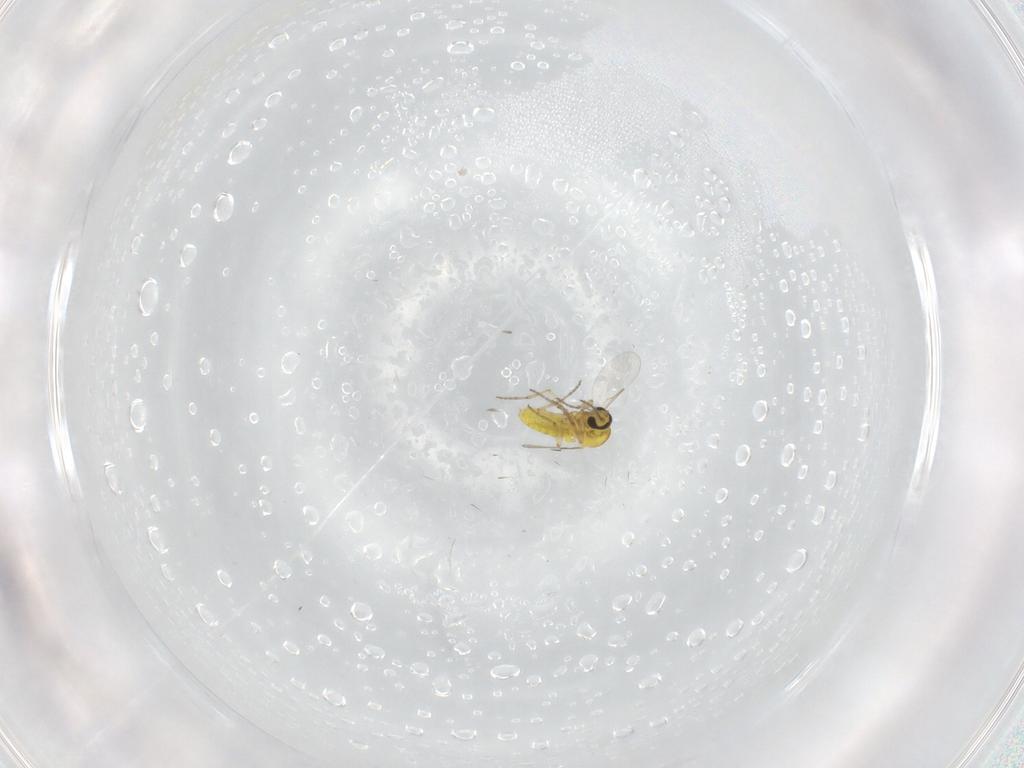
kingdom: Animalia
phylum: Arthropoda
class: Insecta
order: Diptera
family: Ceratopogonidae
